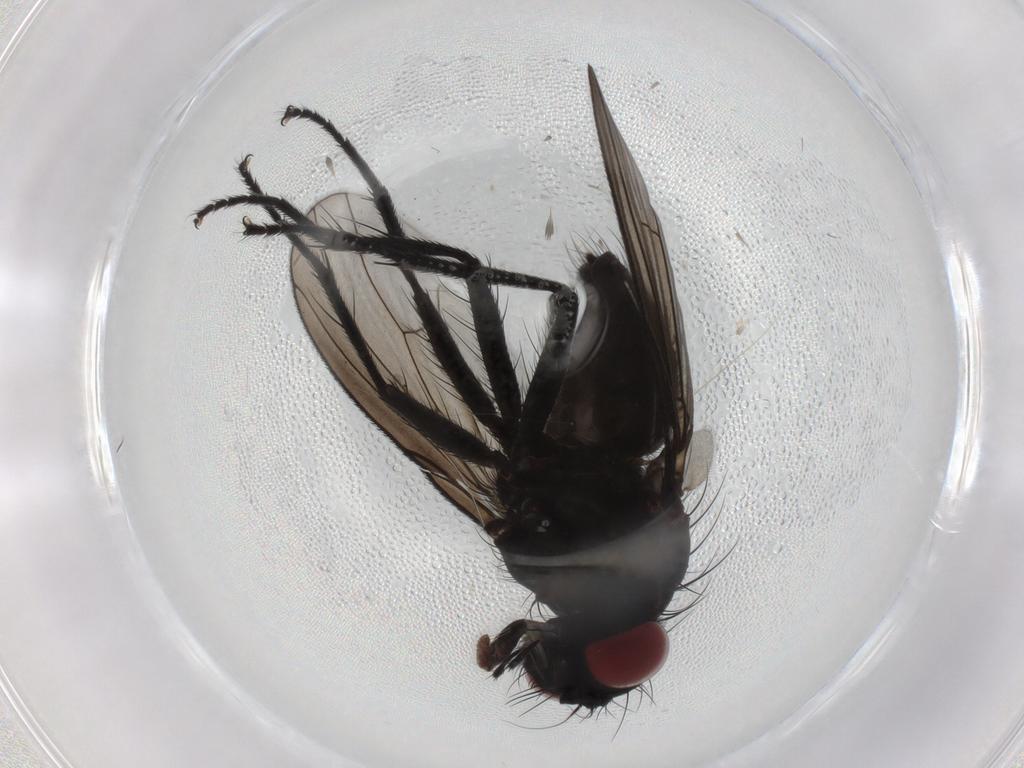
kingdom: Animalia
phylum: Arthropoda
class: Insecta
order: Diptera
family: Muscidae
